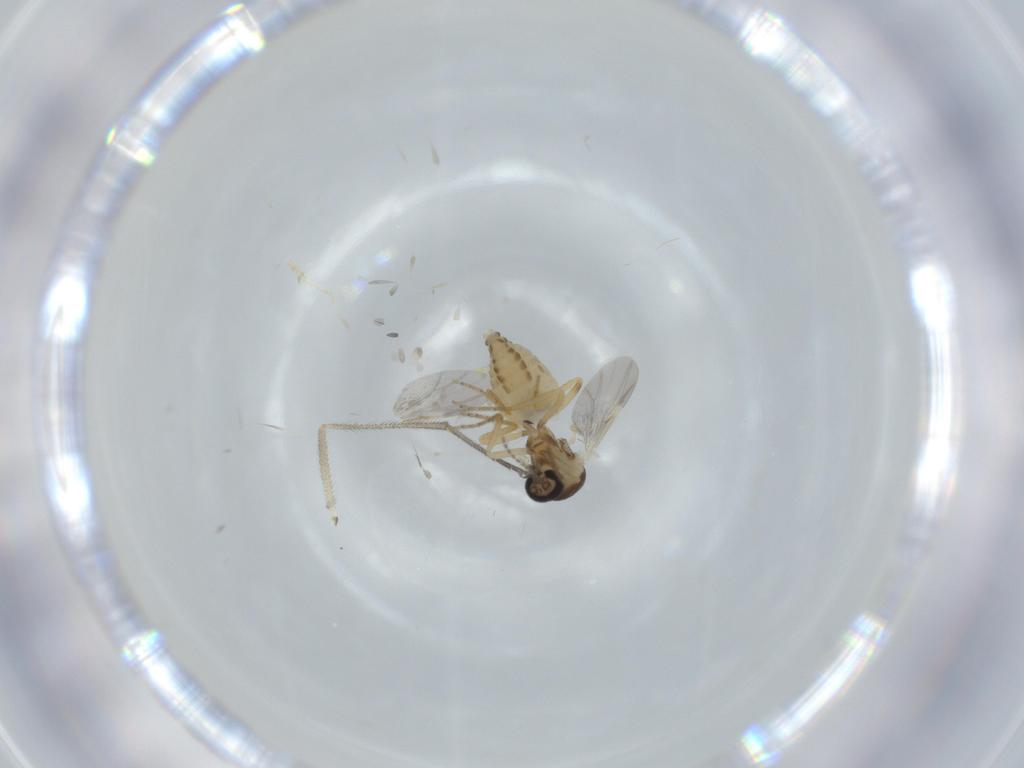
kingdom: Animalia
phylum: Arthropoda
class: Insecta
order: Diptera
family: Ceratopogonidae
